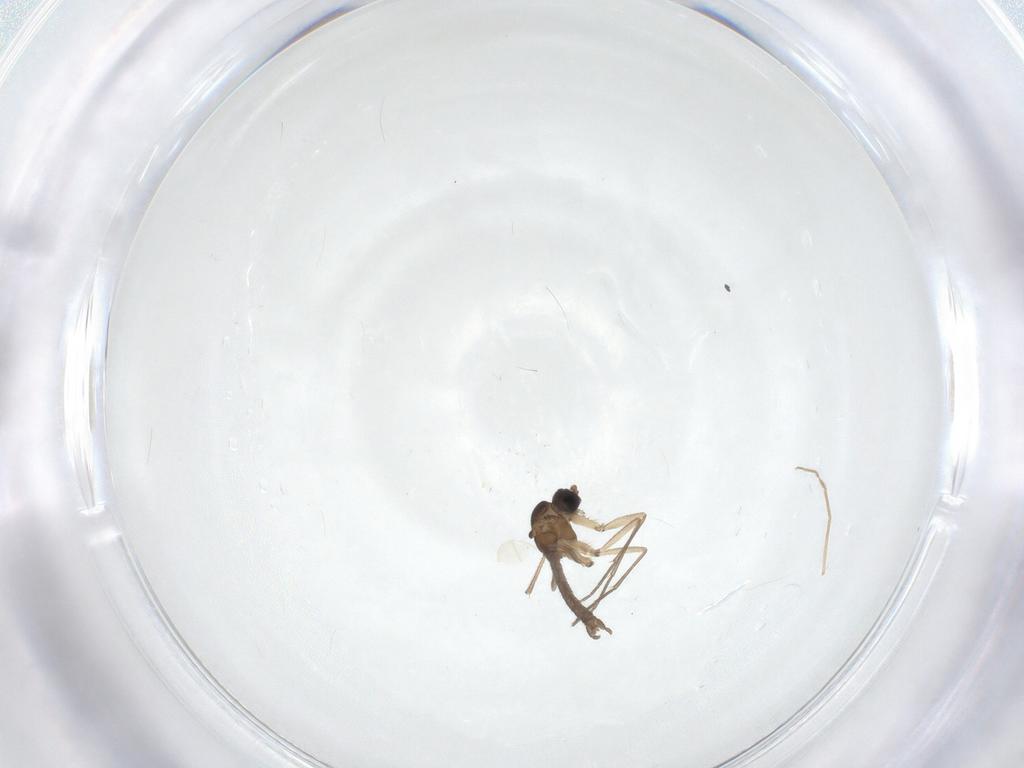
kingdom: Animalia
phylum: Arthropoda
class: Insecta
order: Diptera
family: Sciaridae
